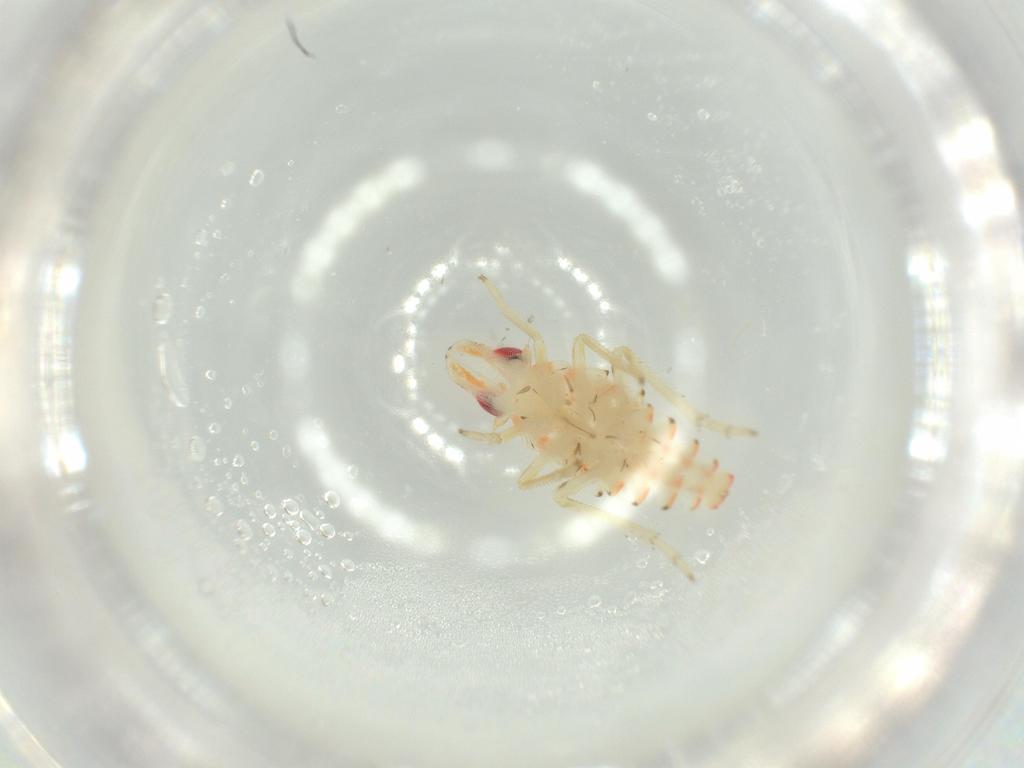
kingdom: Animalia
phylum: Arthropoda
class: Insecta
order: Hemiptera
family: Tropiduchidae
